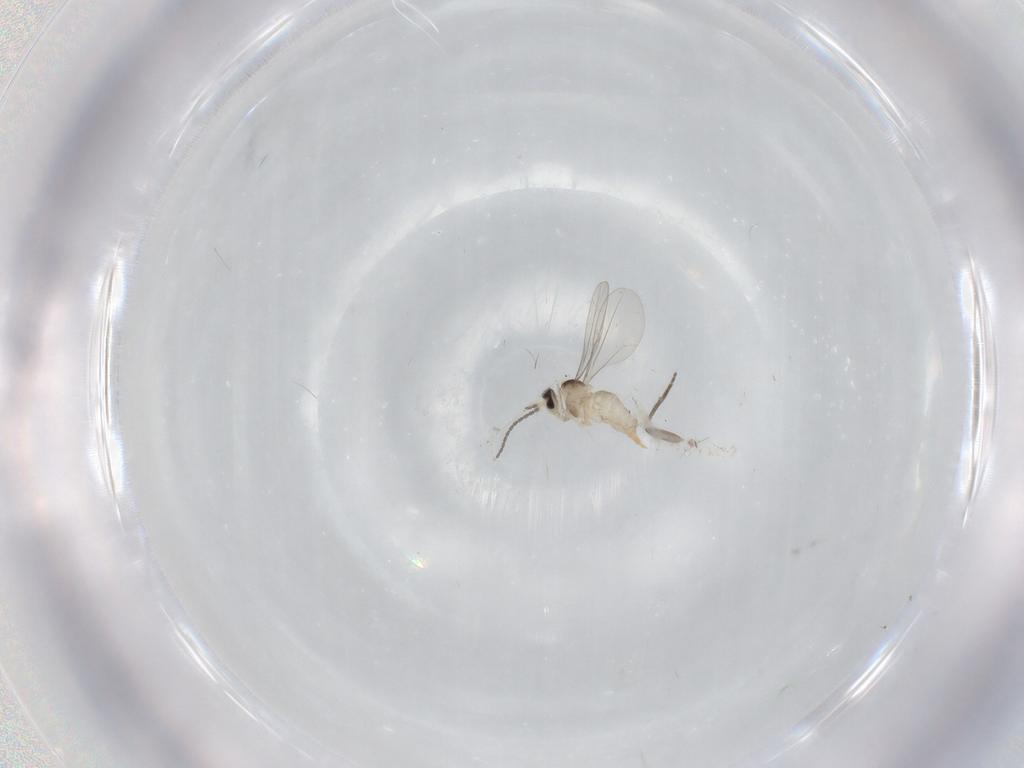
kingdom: Animalia
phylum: Arthropoda
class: Insecta
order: Diptera
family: Cecidomyiidae
